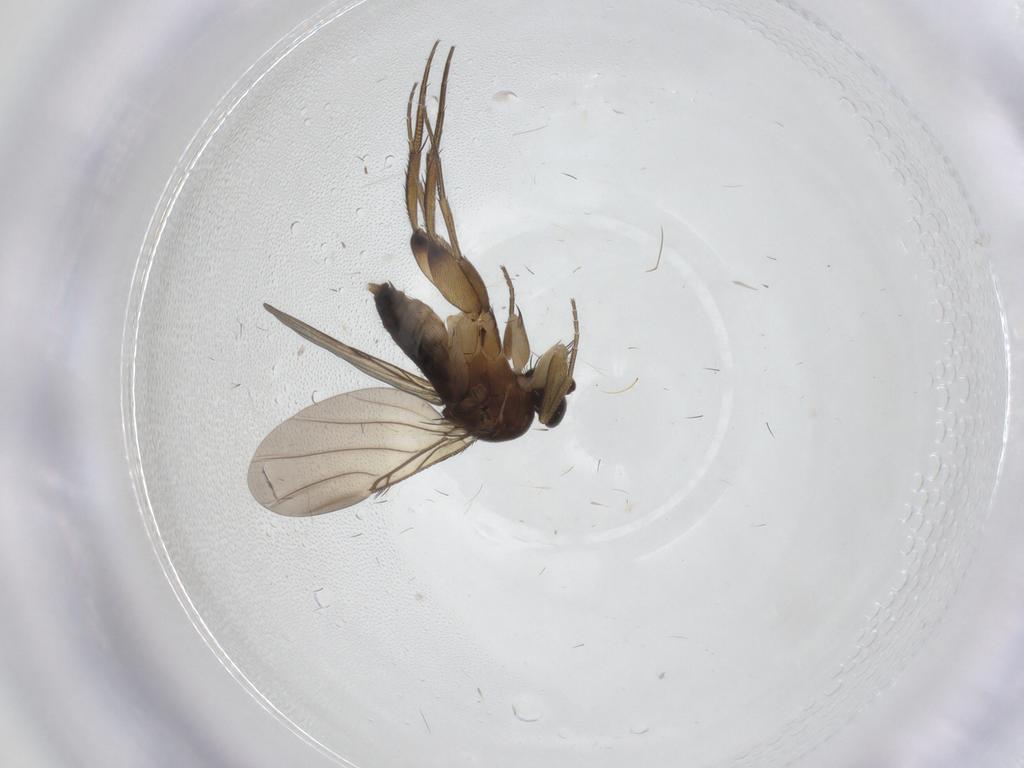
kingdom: Animalia
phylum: Arthropoda
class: Insecta
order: Diptera
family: Phoridae
